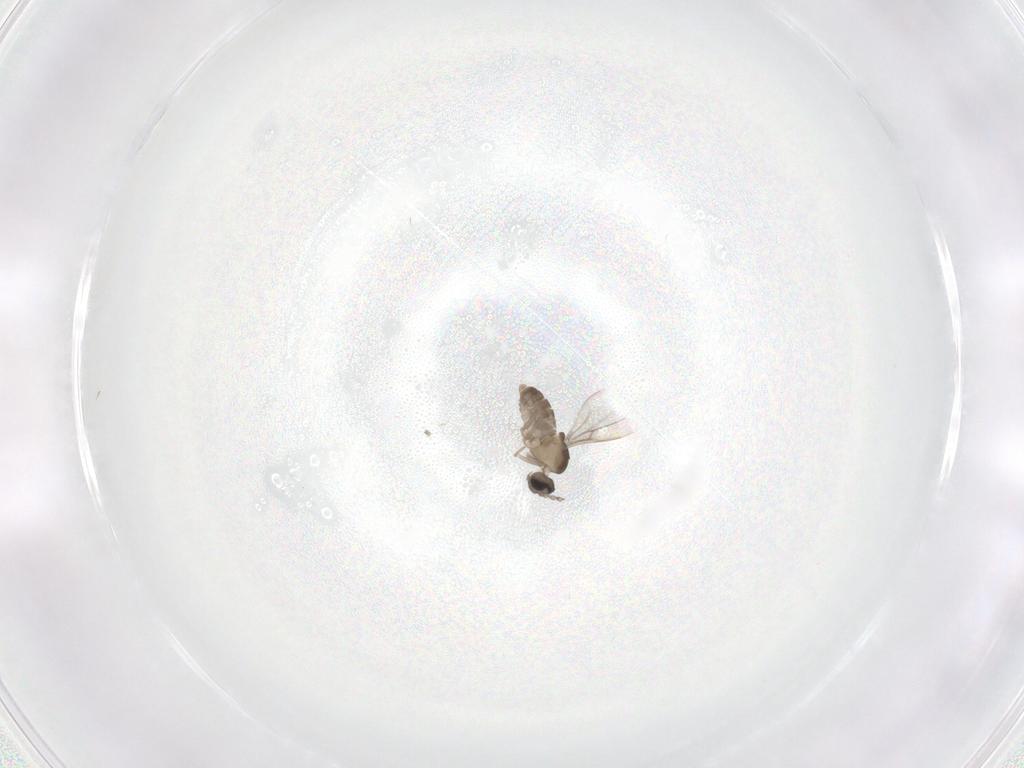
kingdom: Animalia
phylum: Arthropoda
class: Insecta
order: Diptera
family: Cecidomyiidae
